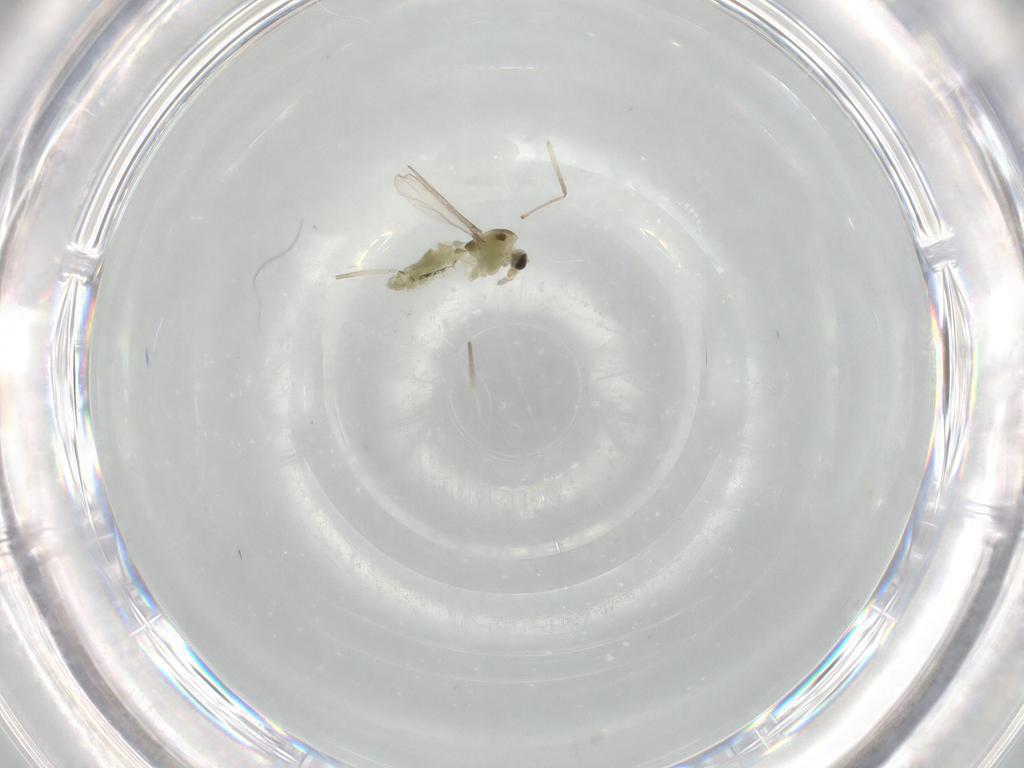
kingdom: Animalia
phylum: Arthropoda
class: Insecta
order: Diptera
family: Chironomidae
